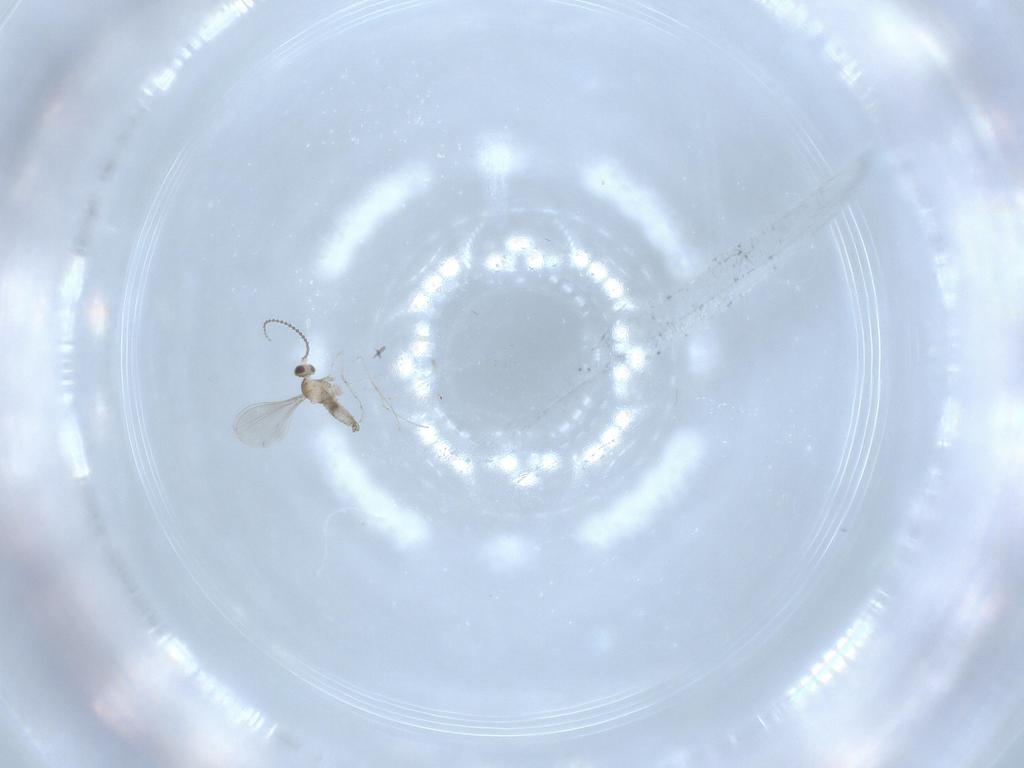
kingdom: Animalia
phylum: Arthropoda
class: Insecta
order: Diptera
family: Cecidomyiidae
